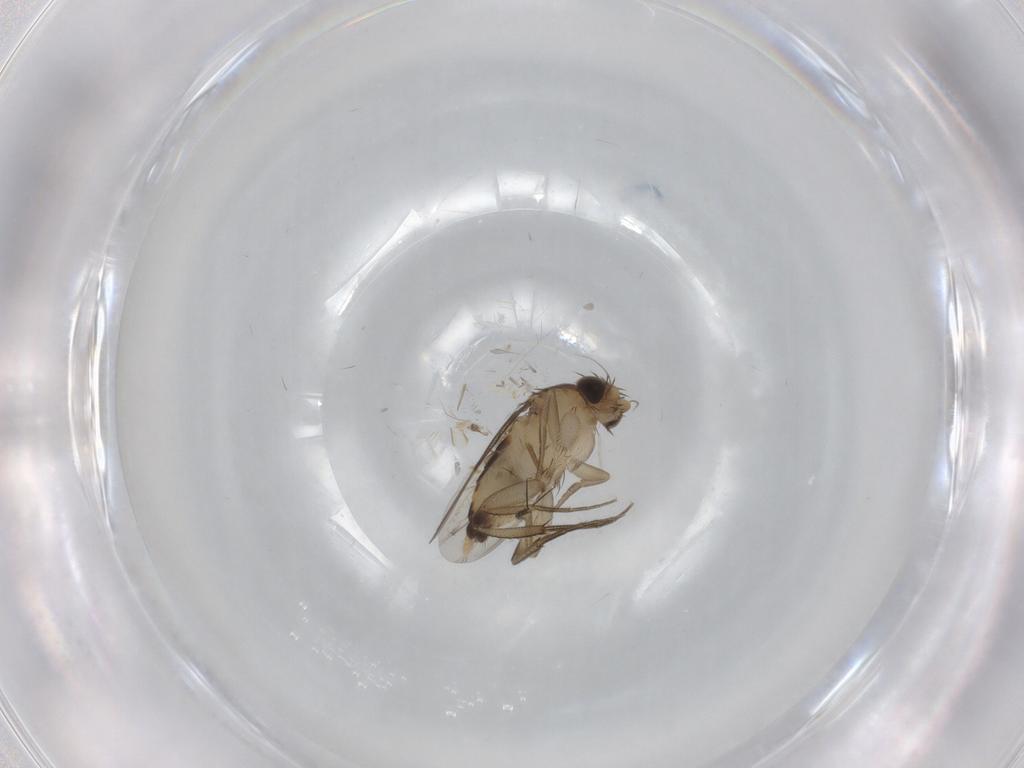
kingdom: Animalia
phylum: Arthropoda
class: Insecta
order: Diptera
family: Phoridae
